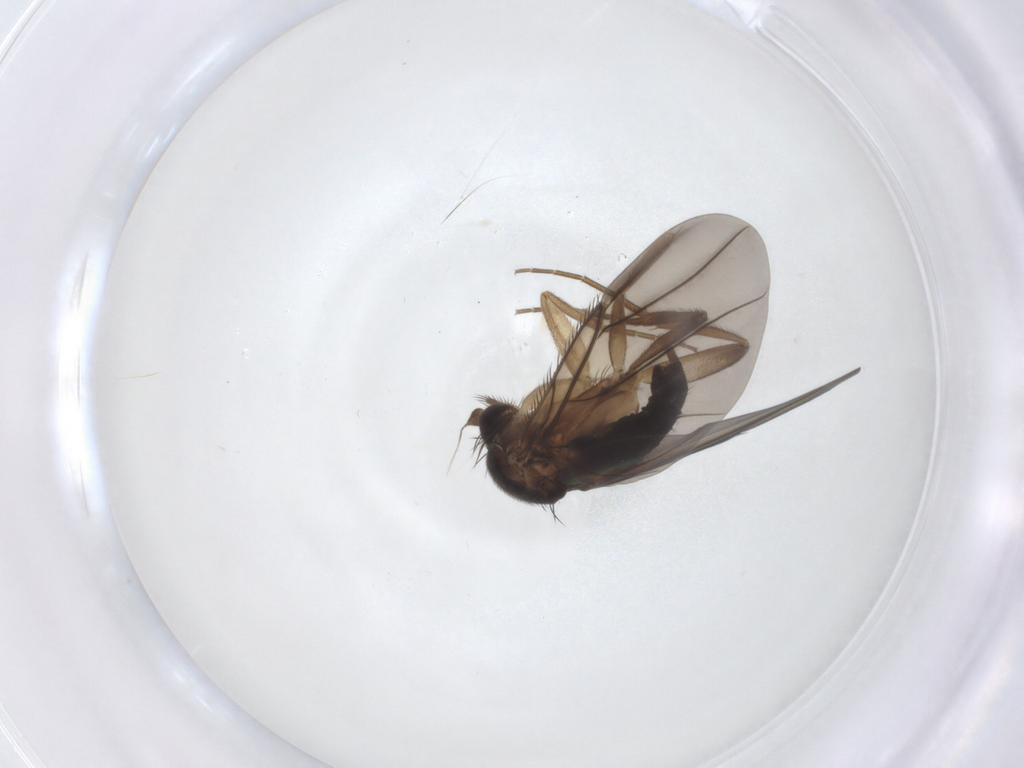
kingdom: Animalia
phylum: Arthropoda
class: Insecta
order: Diptera
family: Phoridae
